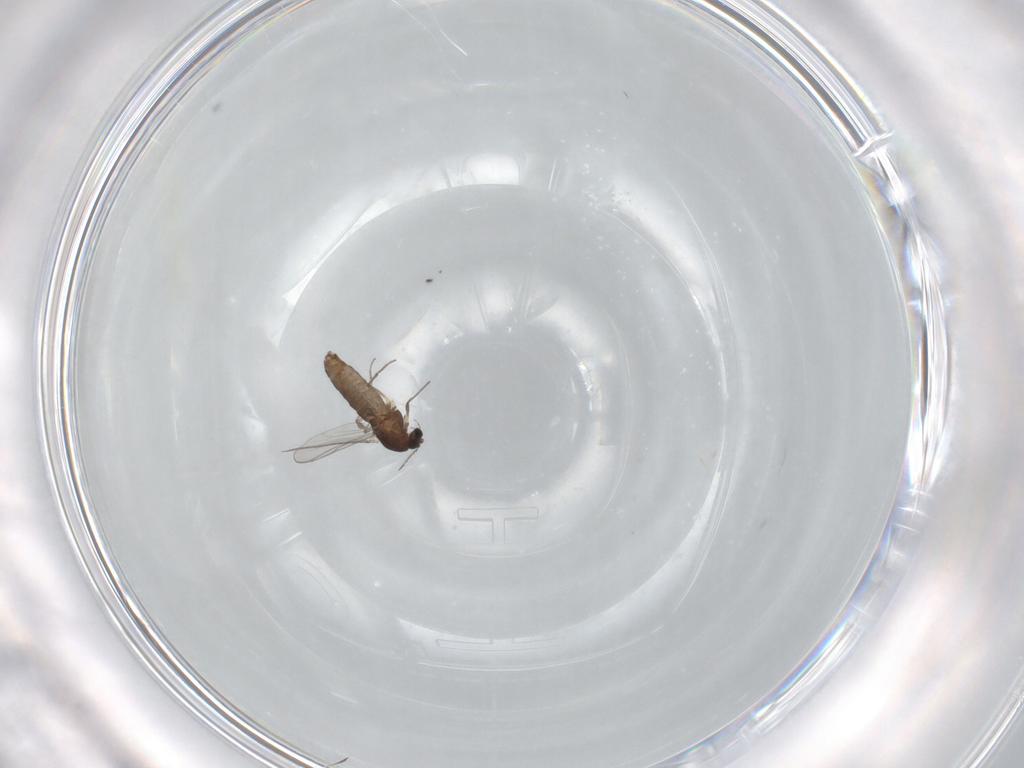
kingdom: Animalia
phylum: Arthropoda
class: Insecta
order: Diptera
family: Chironomidae
